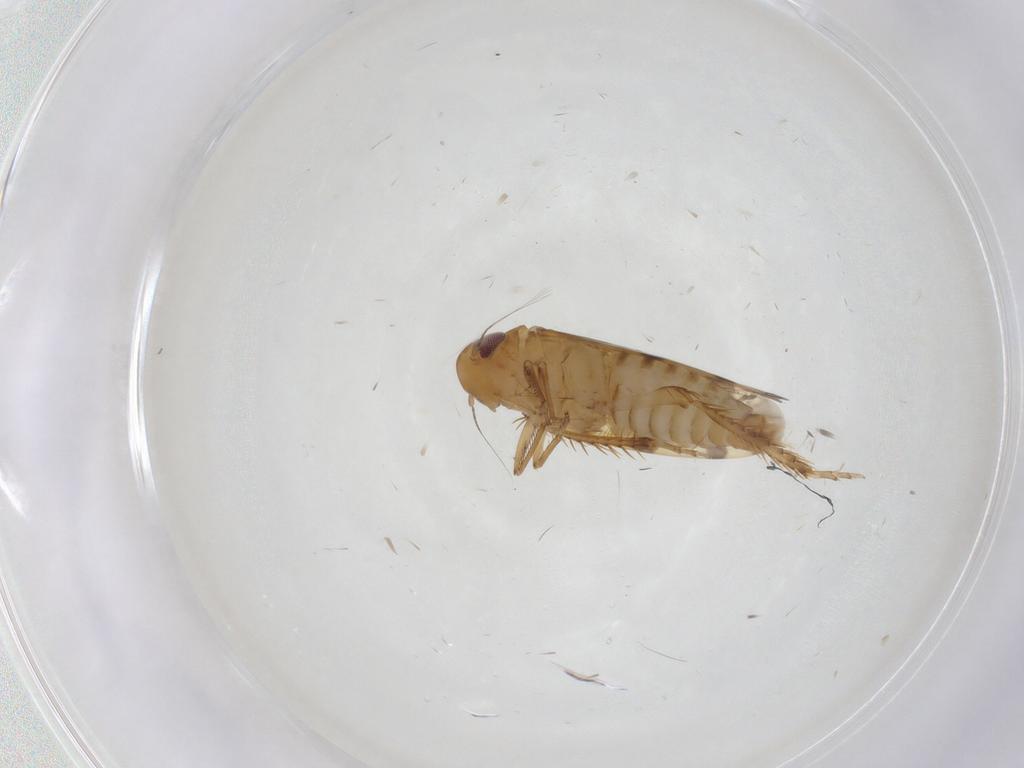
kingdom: Animalia
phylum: Arthropoda
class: Insecta
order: Hemiptera
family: Cicadellidae
